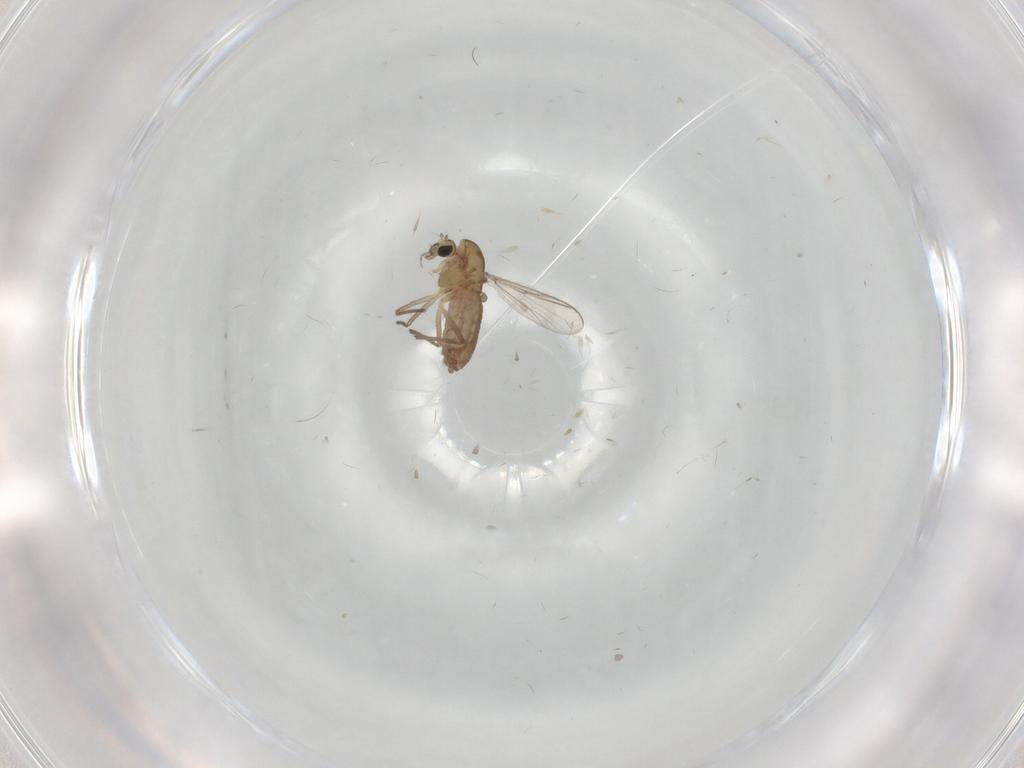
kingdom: Animalia
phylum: Arthropoda
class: Insecta
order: Diptera
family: Chironomidae
